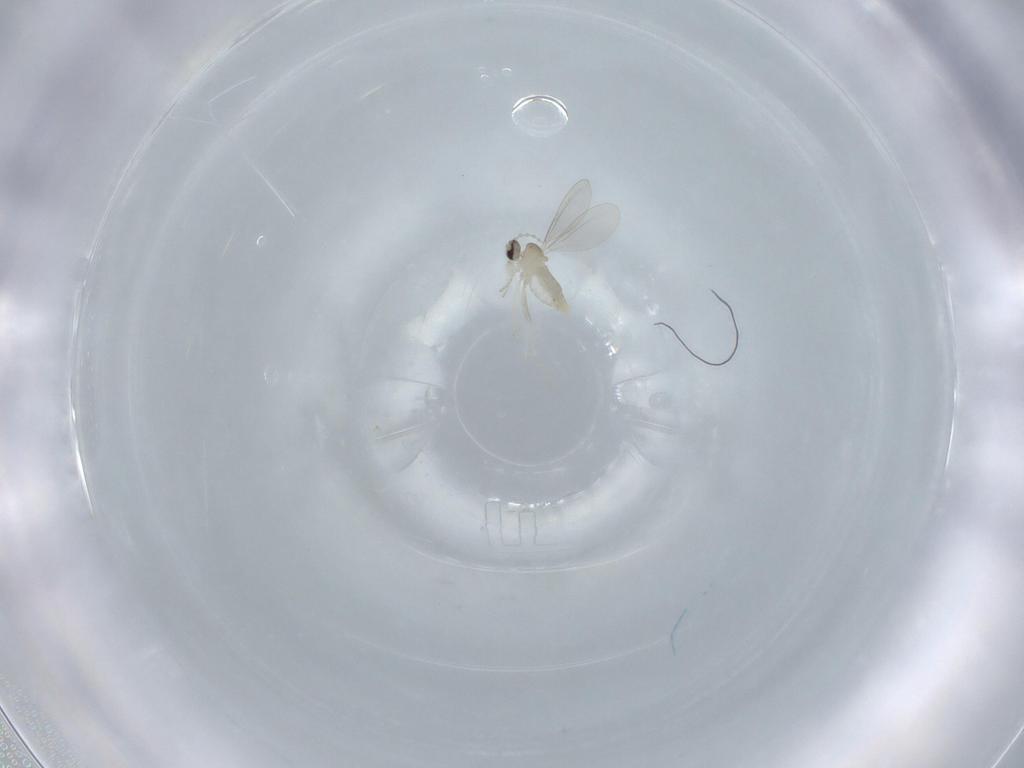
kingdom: Animalia
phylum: Arthropoda
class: Insecta
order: Diptera
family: Cecidomyiidae
